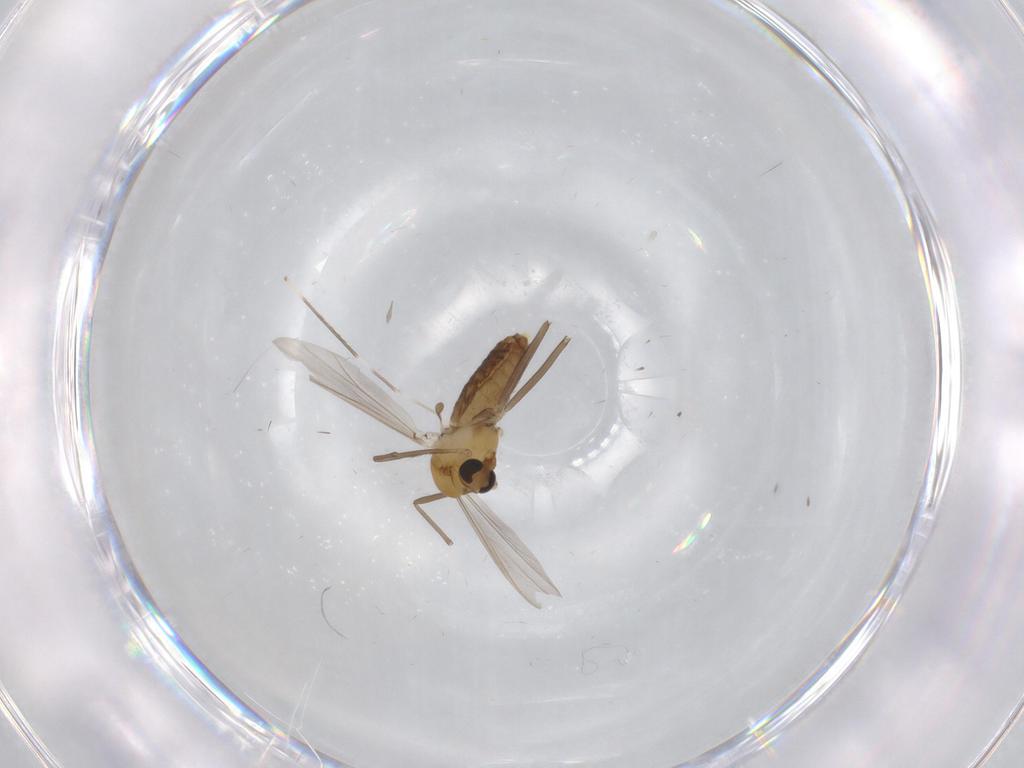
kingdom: Animalia
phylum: Arthropoda
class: Insecta
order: Diptera
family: Chironomidae
